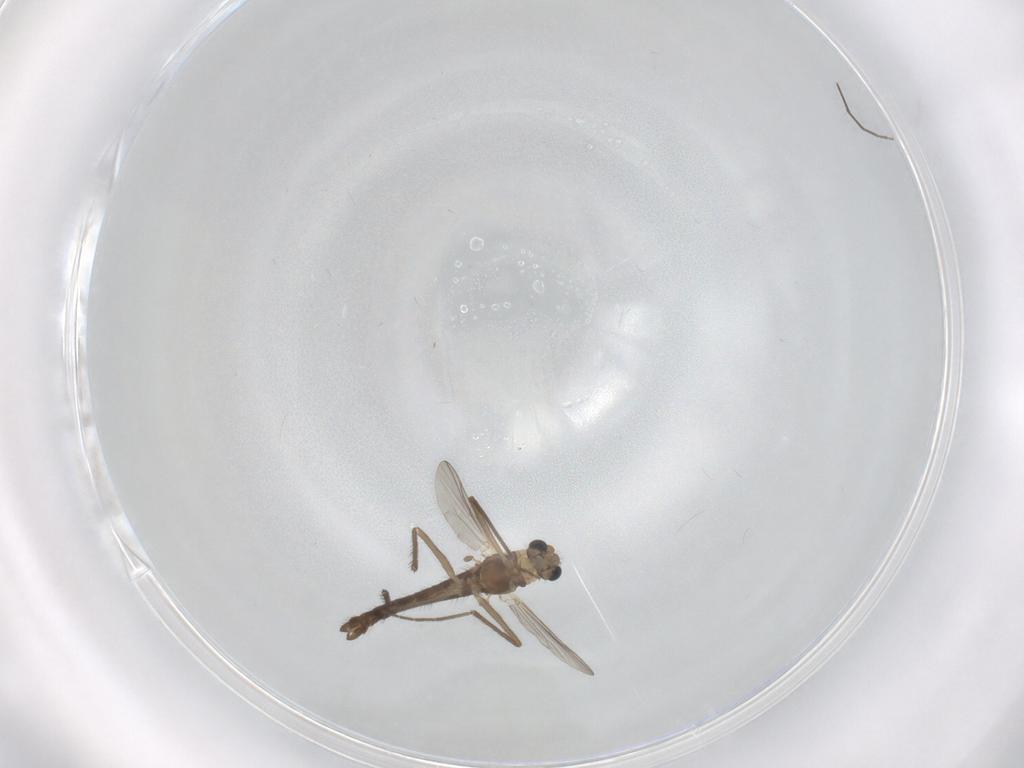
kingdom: Animalia
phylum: Arthropoda
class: Insecta
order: Diptera
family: Chironomidae
